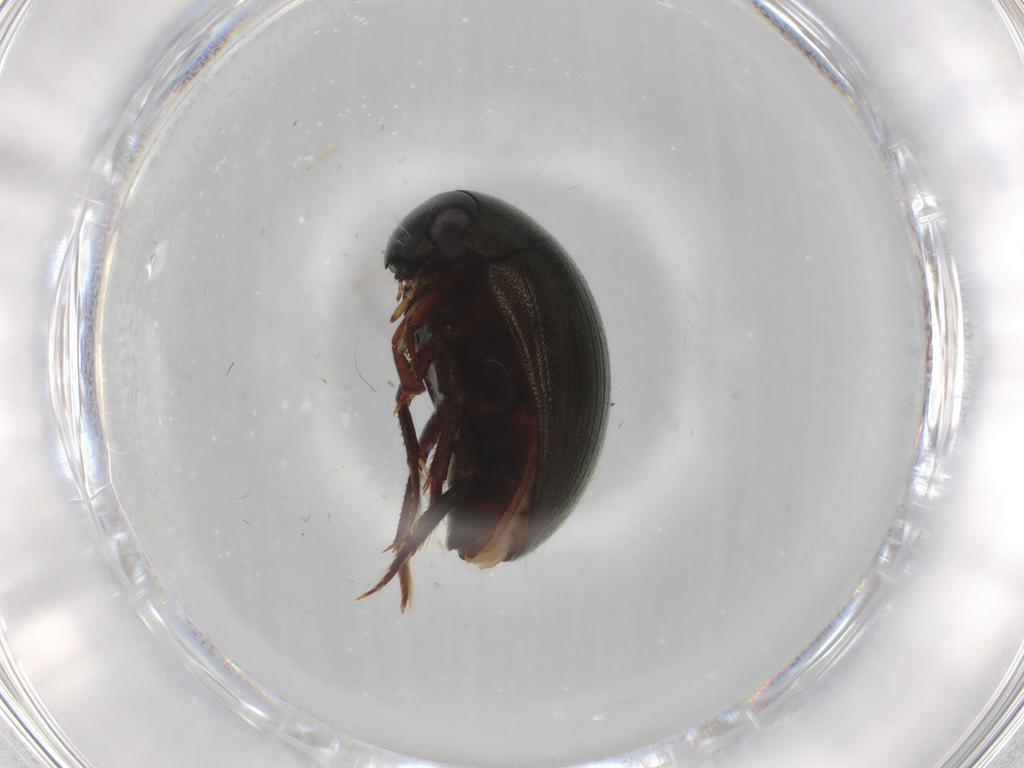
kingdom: Animalia
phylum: Arthropoda
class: Insecta
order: Coleoptera
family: Hydrophilidae
